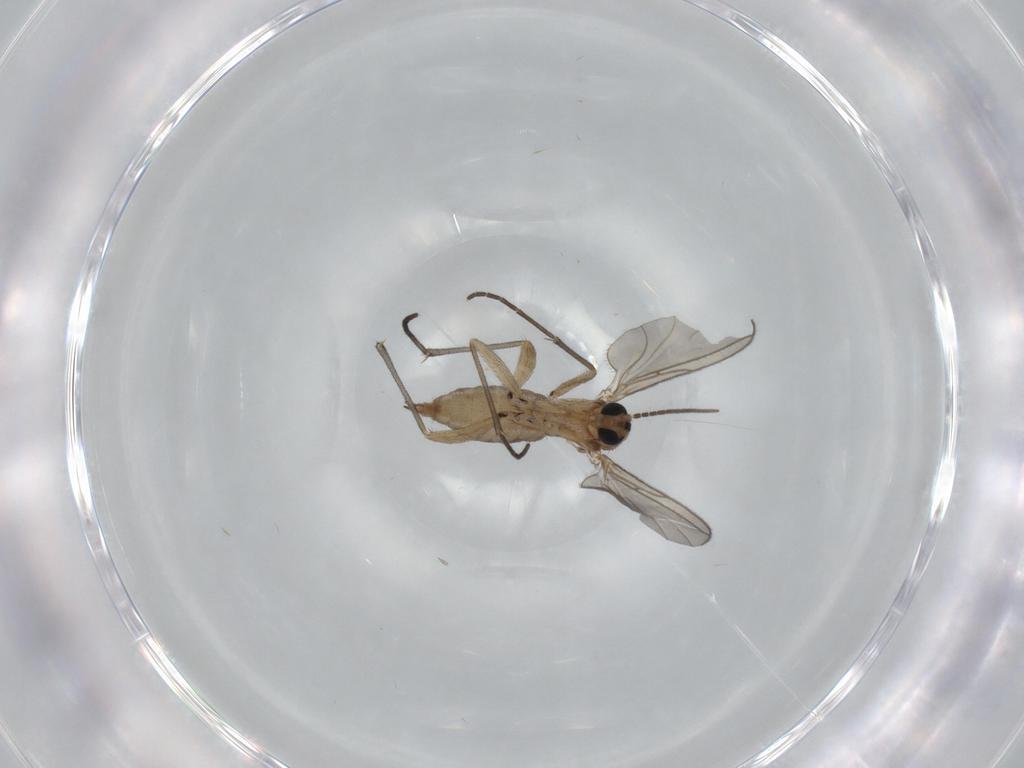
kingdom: Animalia
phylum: Arthropoda
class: Insecta
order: Diptera
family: Sciaridae
